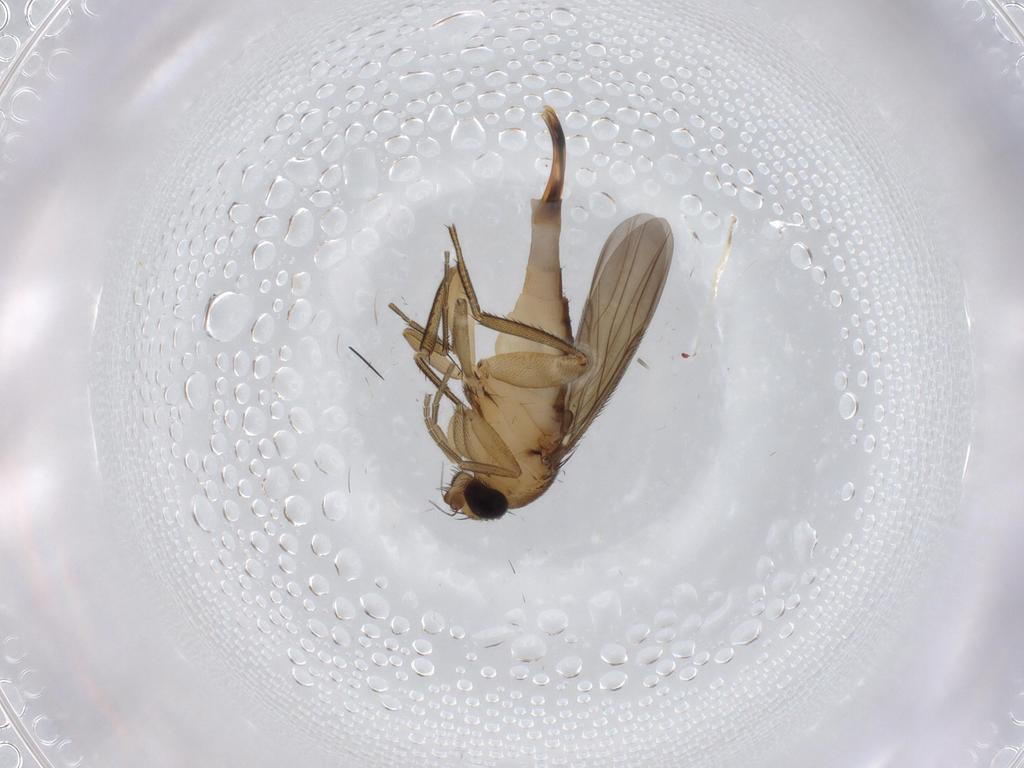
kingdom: Animalia
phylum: Arthropoda
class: Insecta
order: Diptera
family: Phoridae
